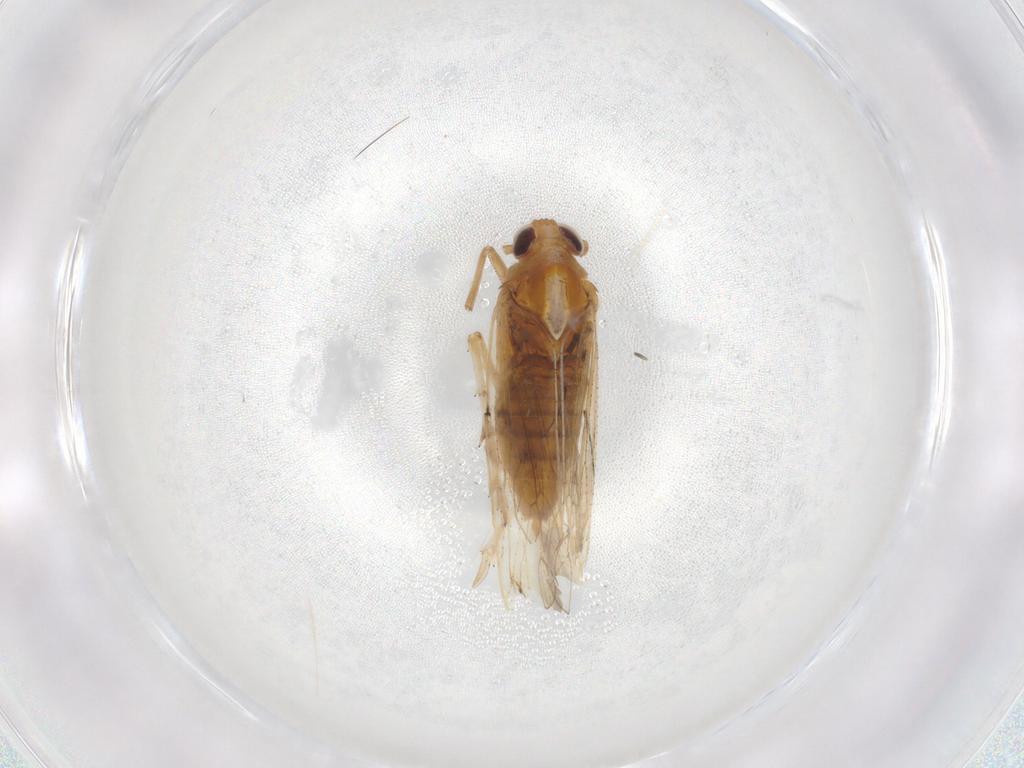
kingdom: Animalia
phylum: Arthropoda
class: Insecta
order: Hemiptera
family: Delphacidae
